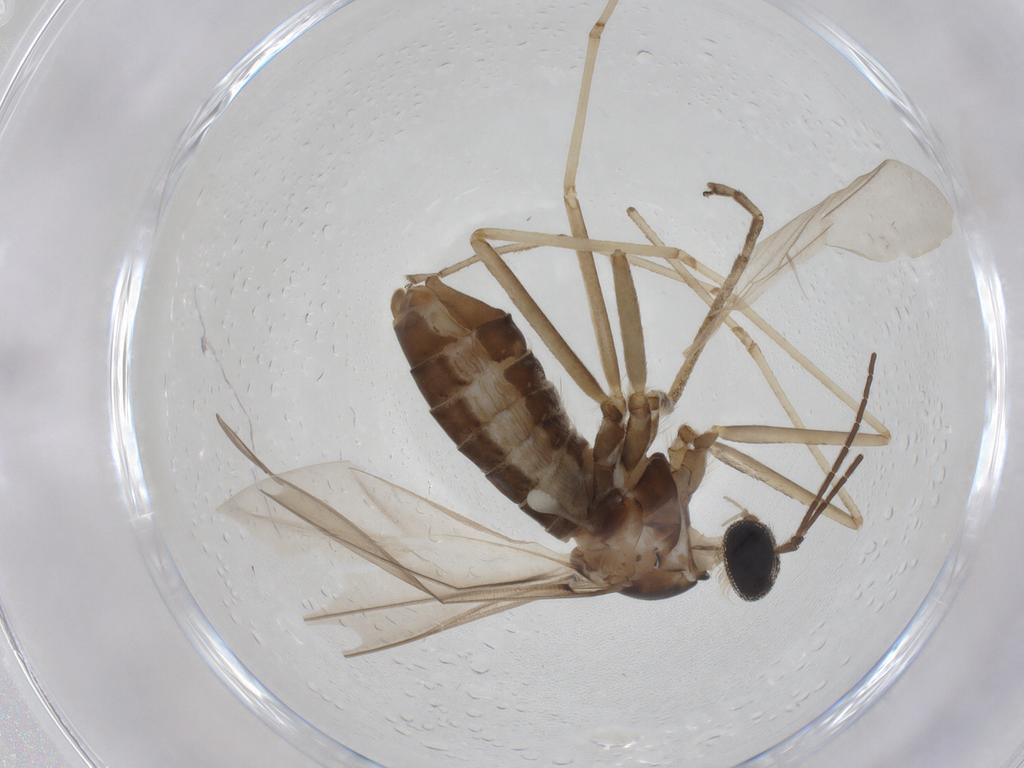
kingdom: Animalia
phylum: Arthropoda
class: Insecta
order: Diptera
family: Cecidomyiidae
